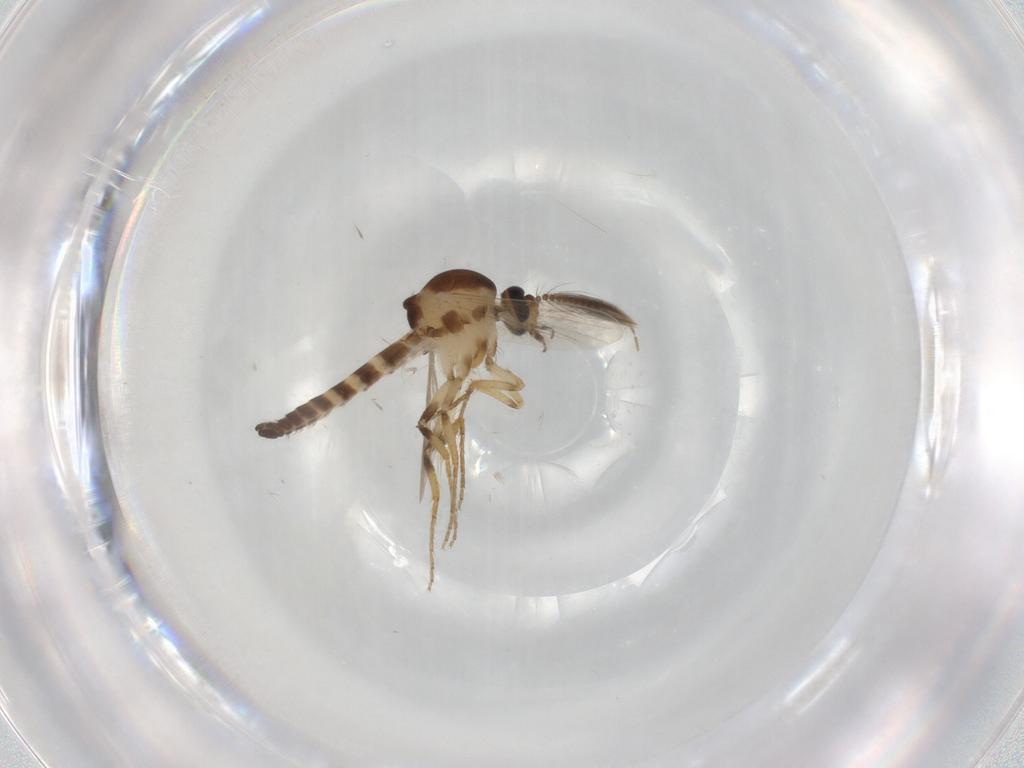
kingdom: Animalia
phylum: Arthropoda
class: Insecta
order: Diptera
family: Ceratopogonidae
